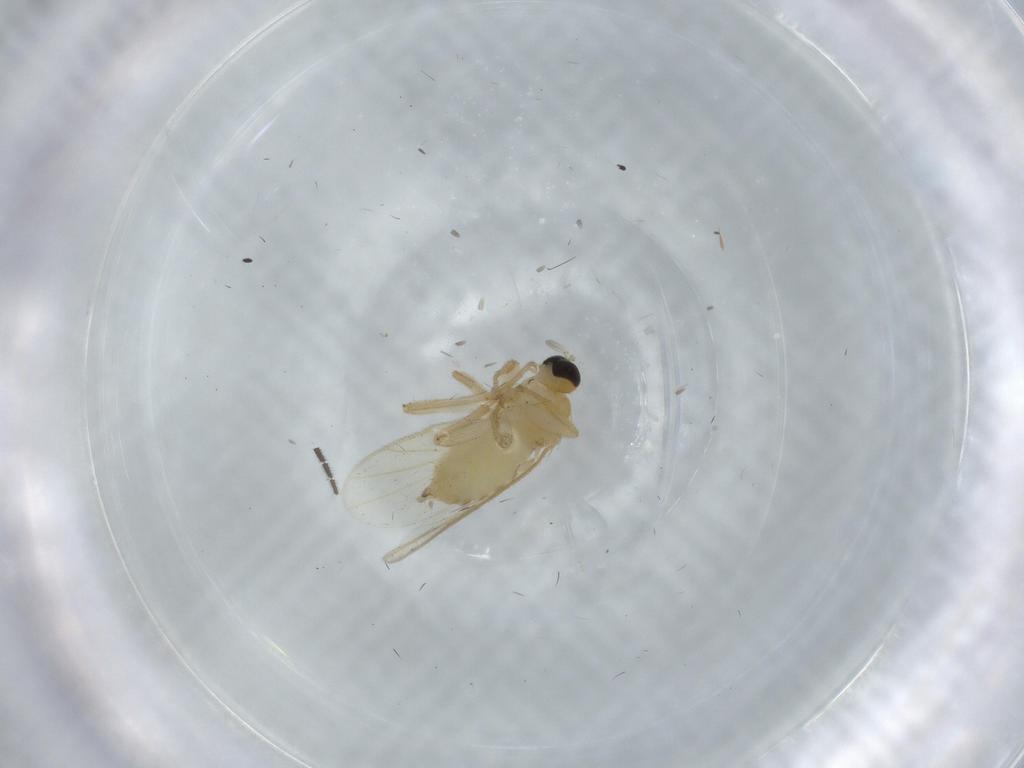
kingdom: Animalia
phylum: Arthropoda
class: Insecta
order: Diptera
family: Hybotidae
